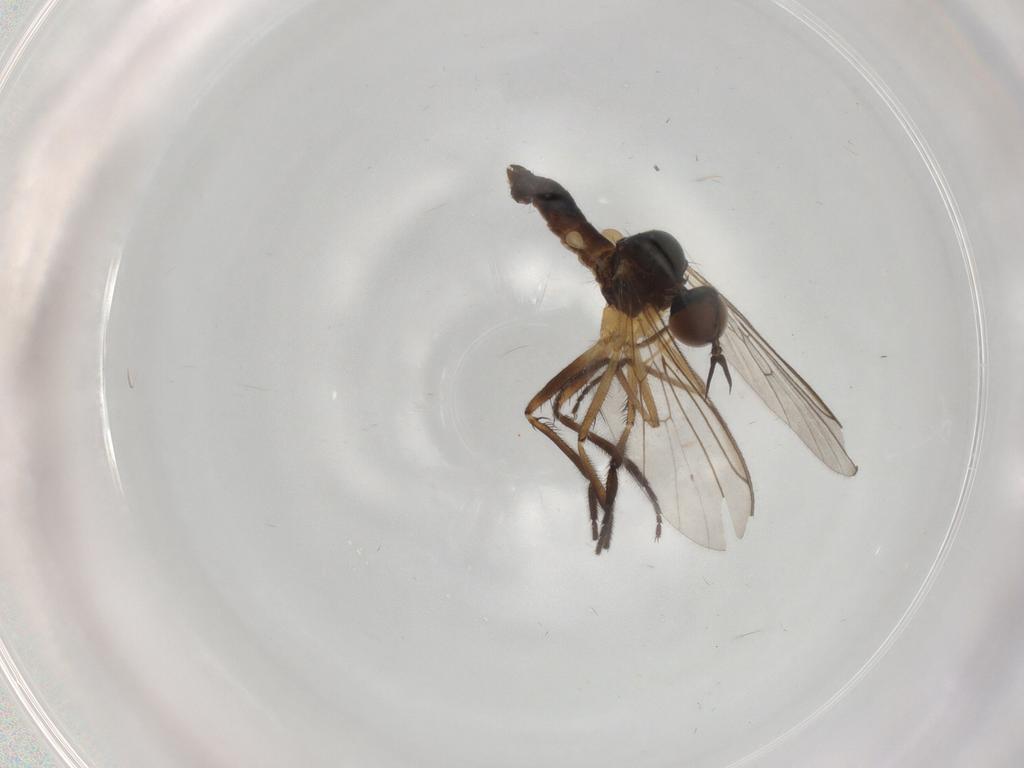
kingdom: Animalia
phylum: Arthropoda
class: Insecta
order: Diptera
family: Empididae
